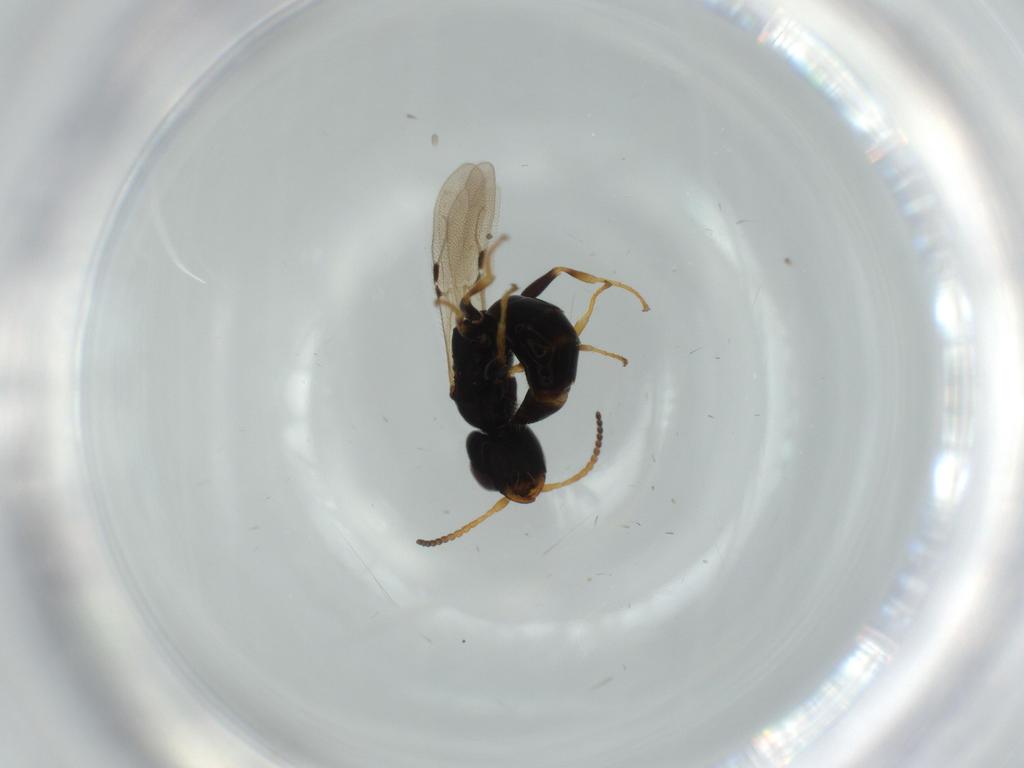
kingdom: Animalia
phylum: Arthropoda
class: Insecta
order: Hymenoptera
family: Bethylidae
